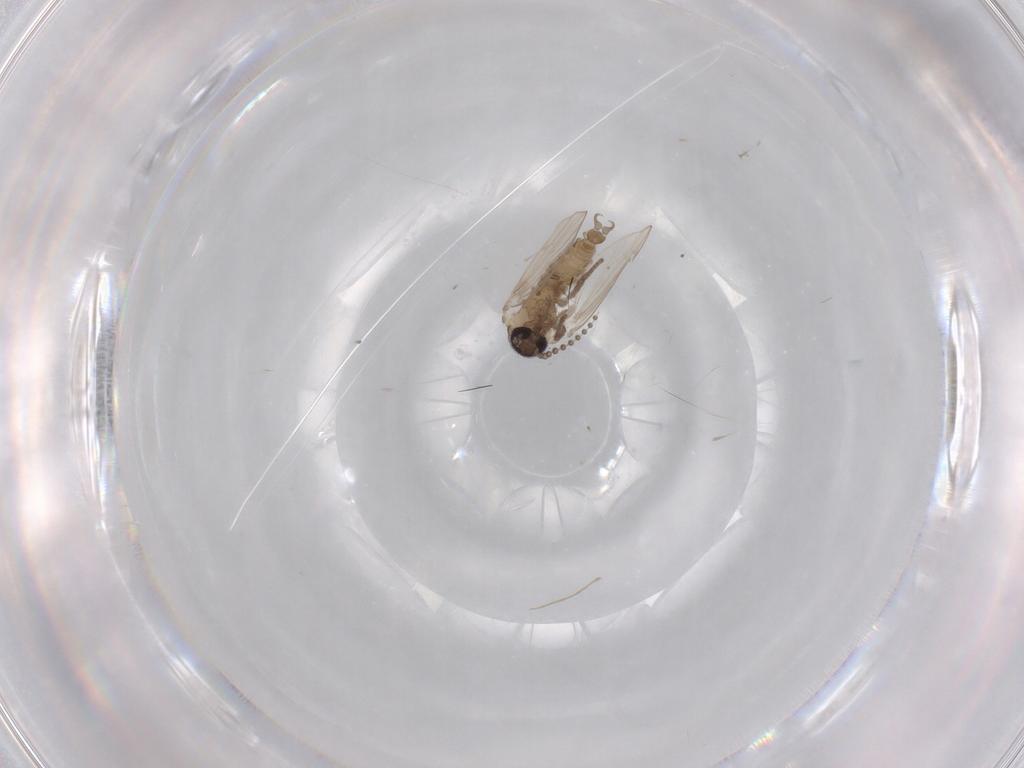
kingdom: Animalia
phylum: Arthropoda
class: Insecta
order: Diptera
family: Psychodidae
